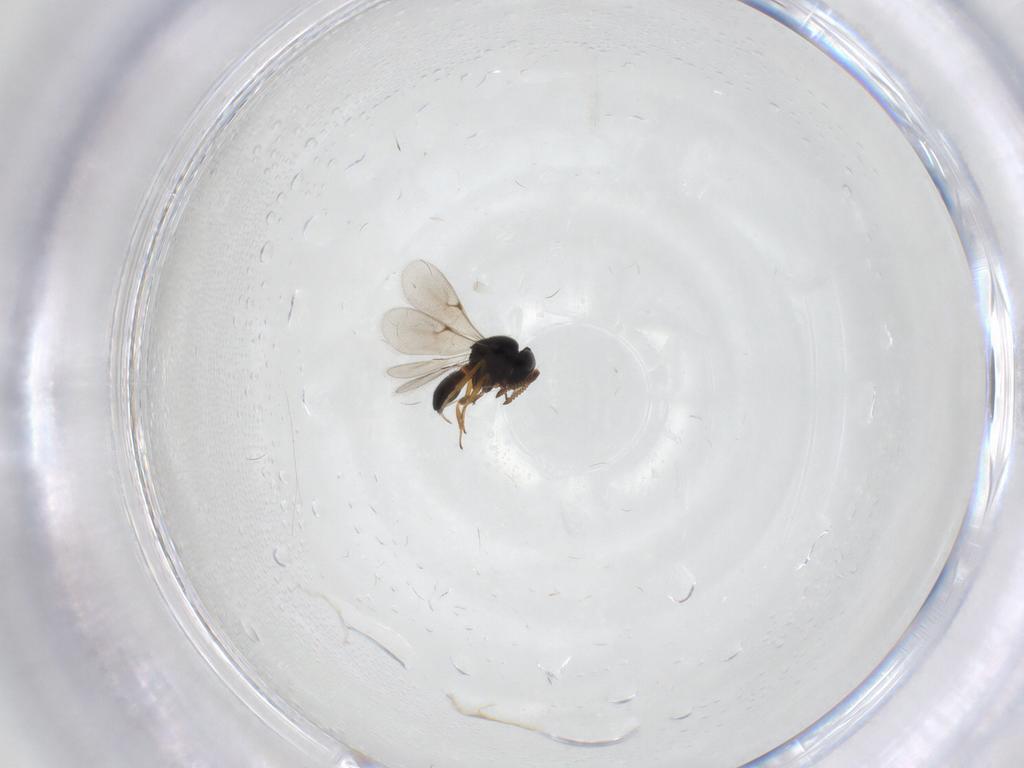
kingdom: Animalia
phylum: Arthropoda
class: Insecta
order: Hymenoptera
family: Scelionidae
